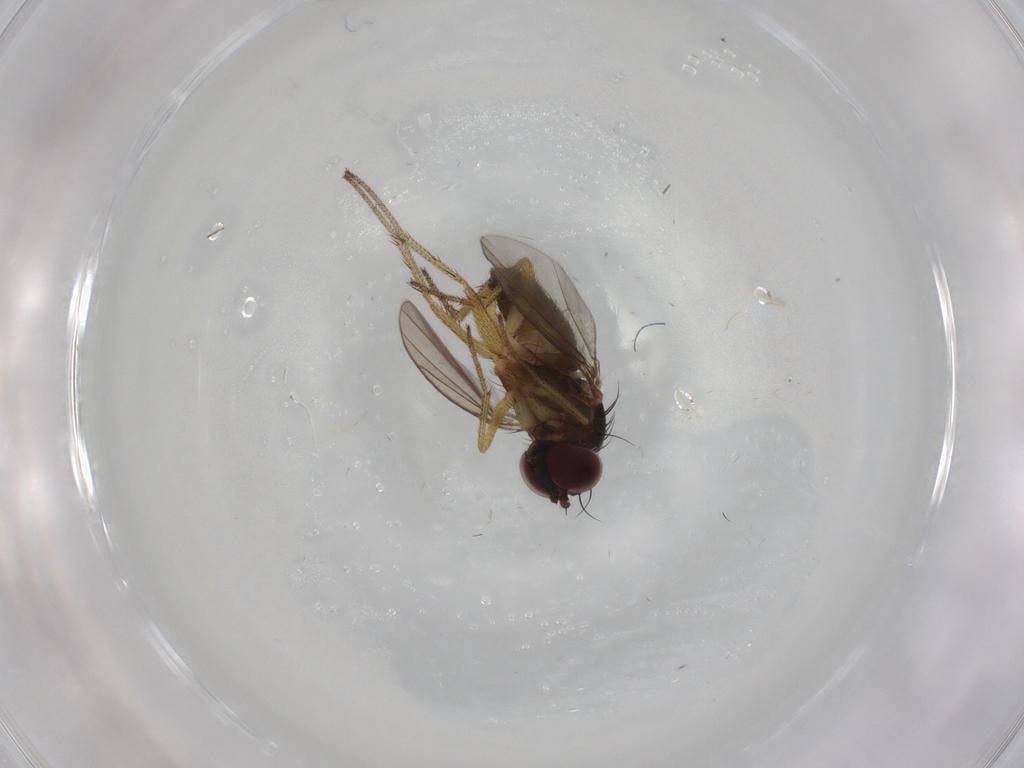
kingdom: Animalia
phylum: Arthropoda
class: Insecta
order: Diptera
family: Dolichopodidae
